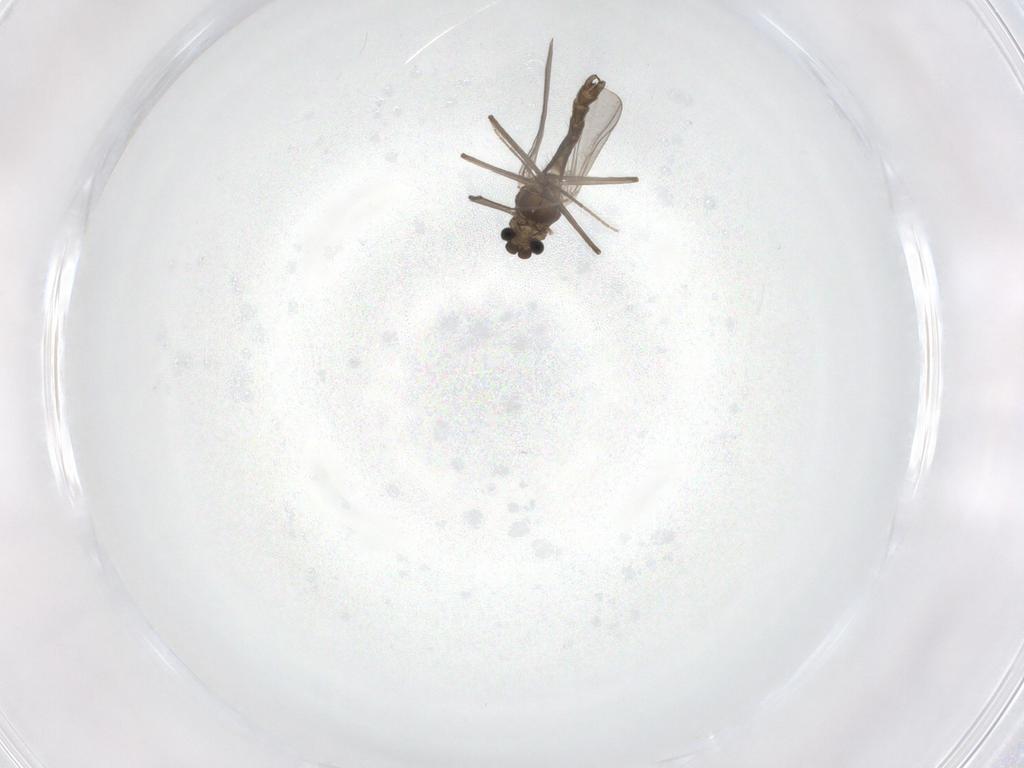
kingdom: Animalia
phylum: Arthropoda
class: Insecta
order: Diptera
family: Chironomidae
